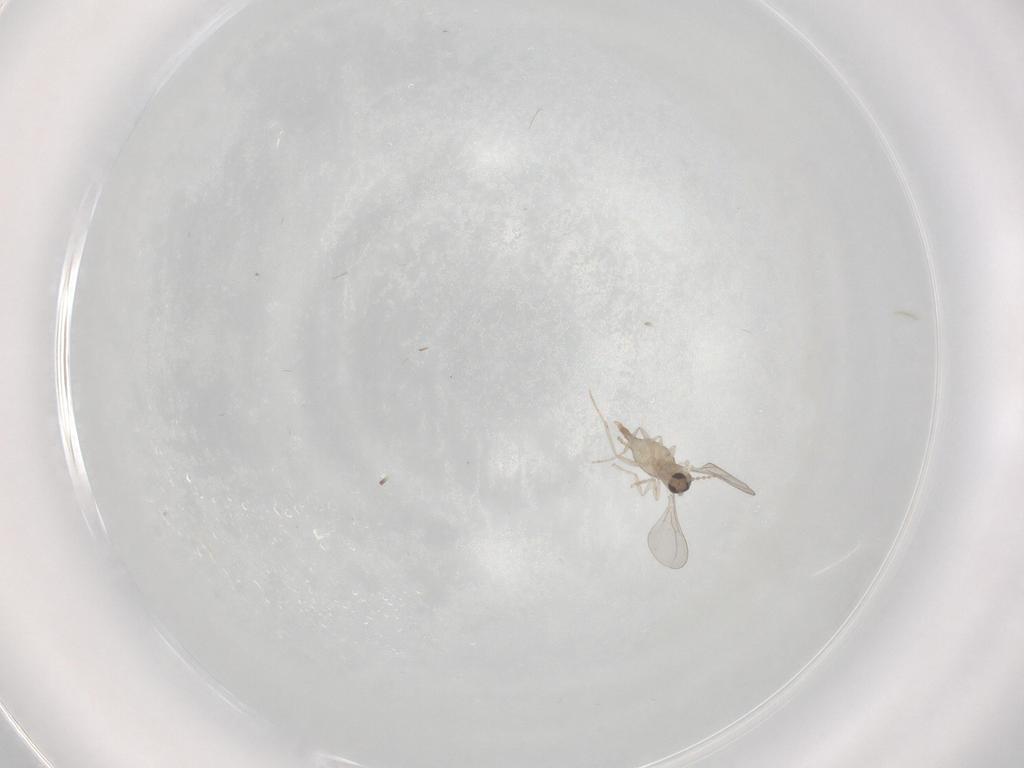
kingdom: Animalia
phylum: Arthropoda
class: Insecta
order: Diptera
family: Cecidomyiidae
